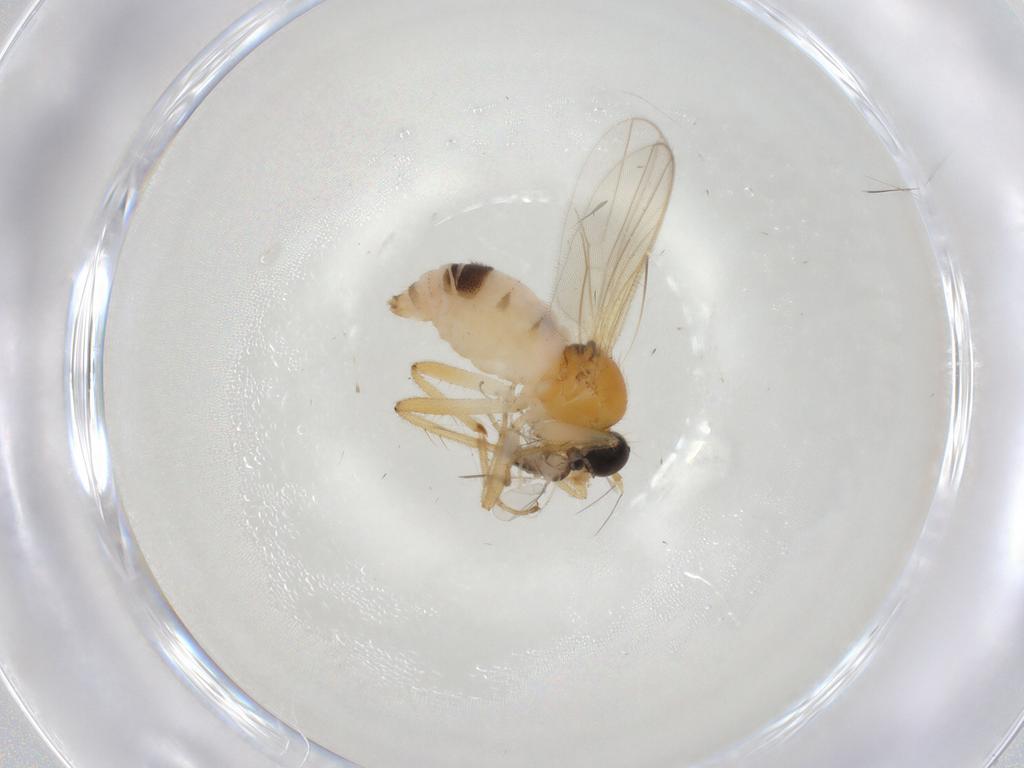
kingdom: Animalia
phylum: Arthropoda
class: Insecta
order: Diptera
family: Hybotidae
